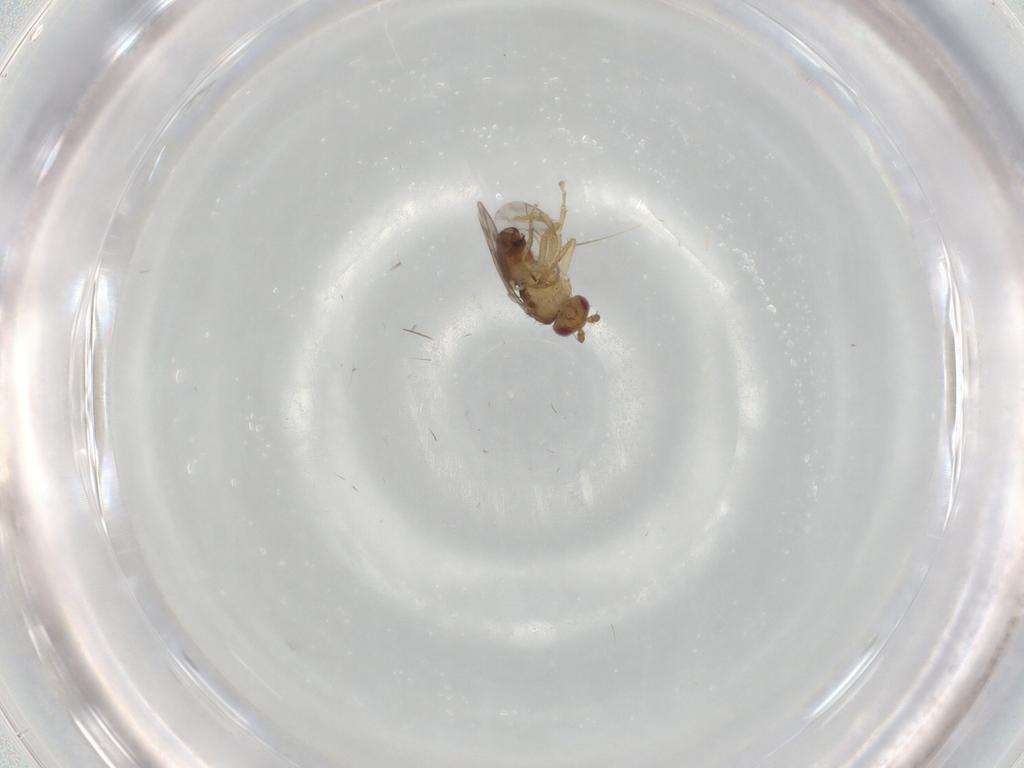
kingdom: Animalia
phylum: Arthropoda
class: Insecta
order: Diptera
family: Sphaeroceridae
